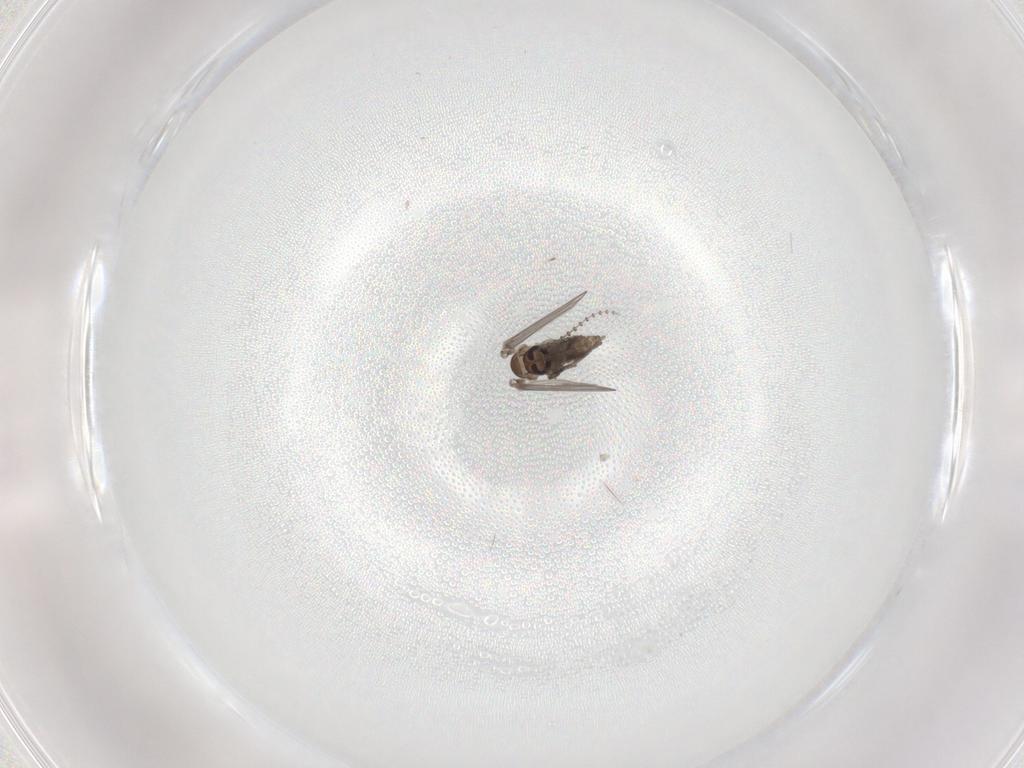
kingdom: Animalia
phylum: Arthropoda
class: Insecta
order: Diptera
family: Psychodidae
